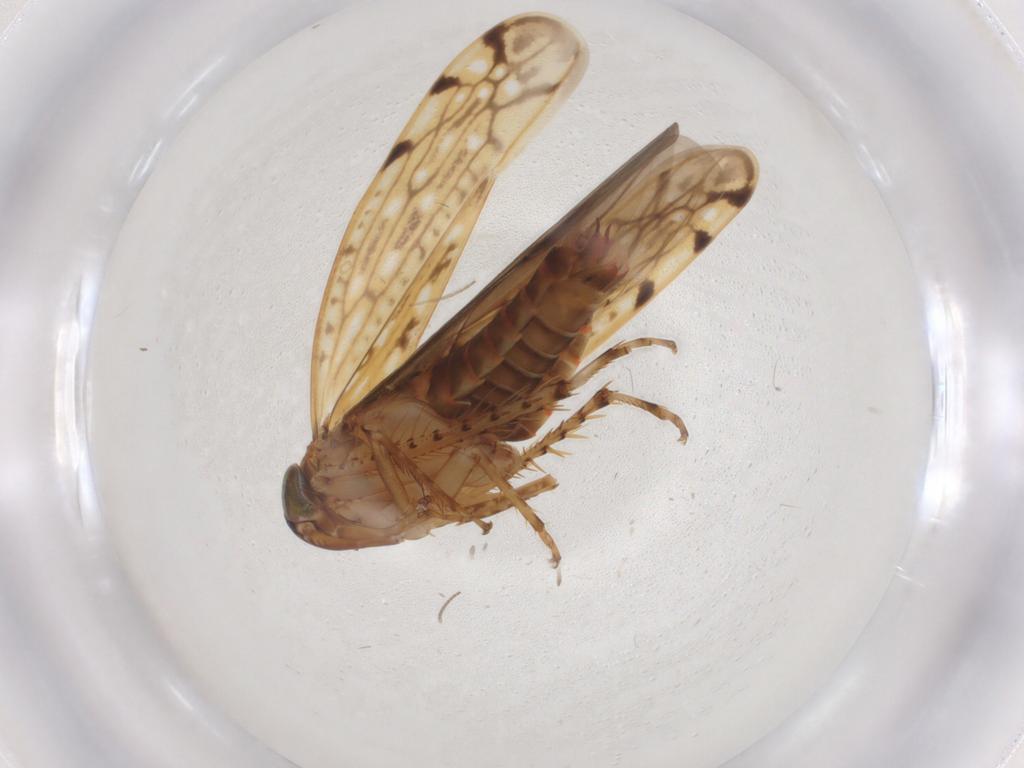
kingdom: Animalia
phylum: Arthropoda
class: Insecta
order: Hemiptera
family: Cicadellidae
